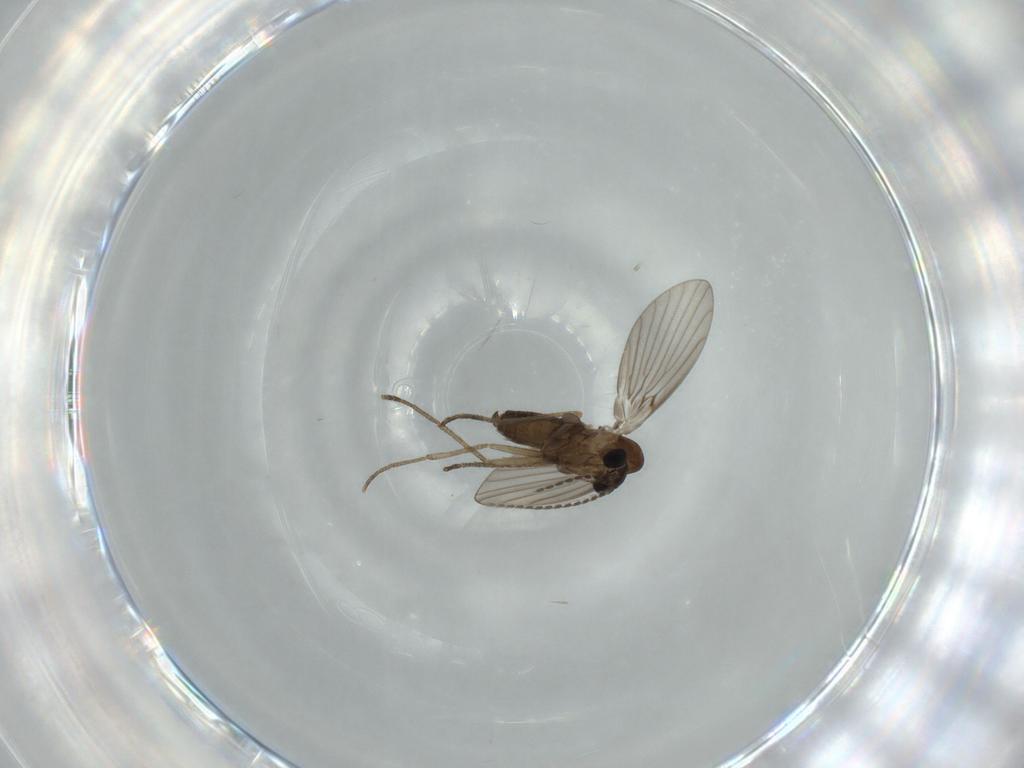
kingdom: Animalia
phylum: Arthropoda
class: Insecta
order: Diptera
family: Psychodidae
